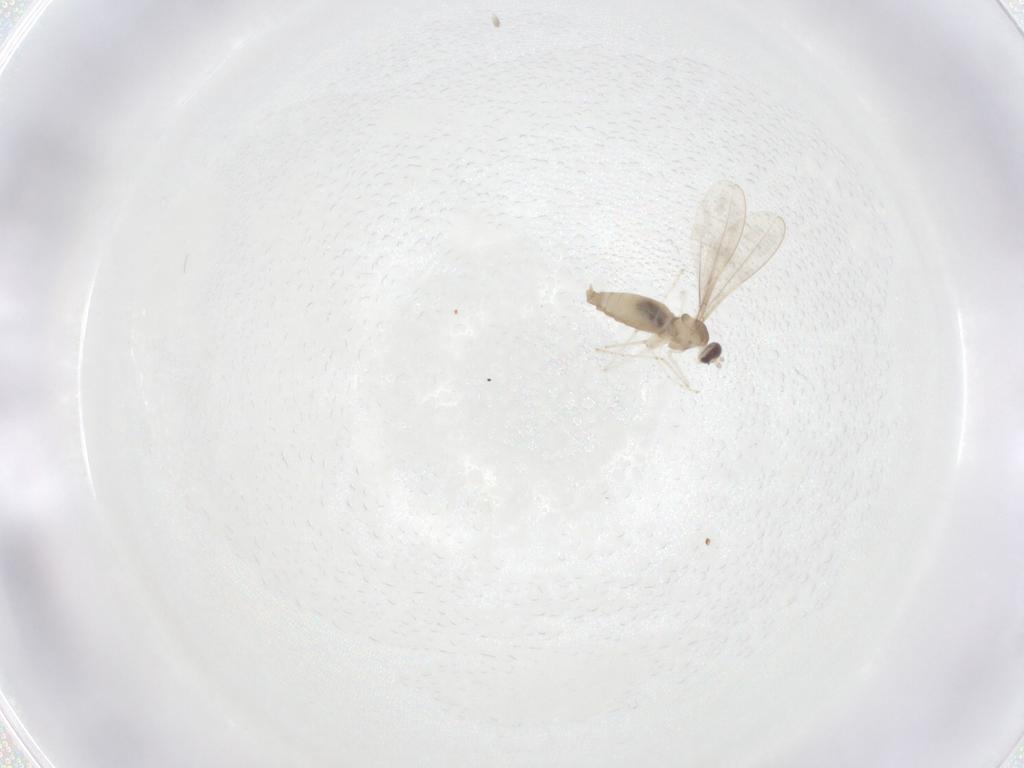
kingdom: Animalia
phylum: Arthropoda
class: Insecta
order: Diptera
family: Cecidomyiidae
